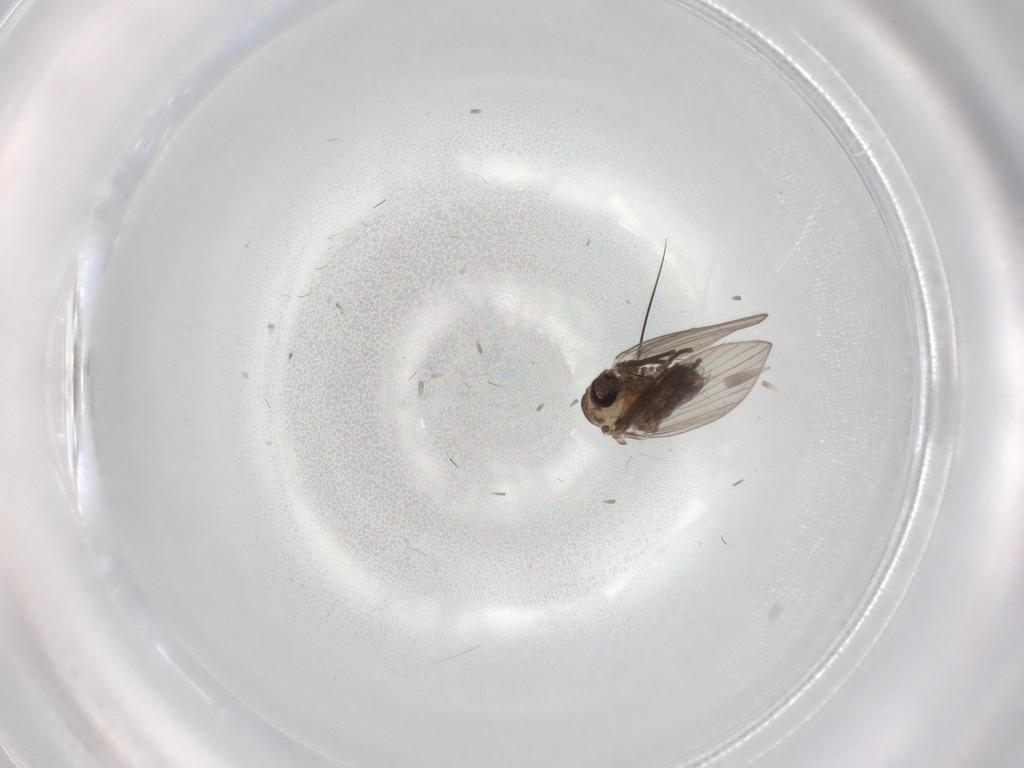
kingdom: Animalia
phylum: Arthropoda
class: Insecta
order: Diptera
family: Psychodidae
